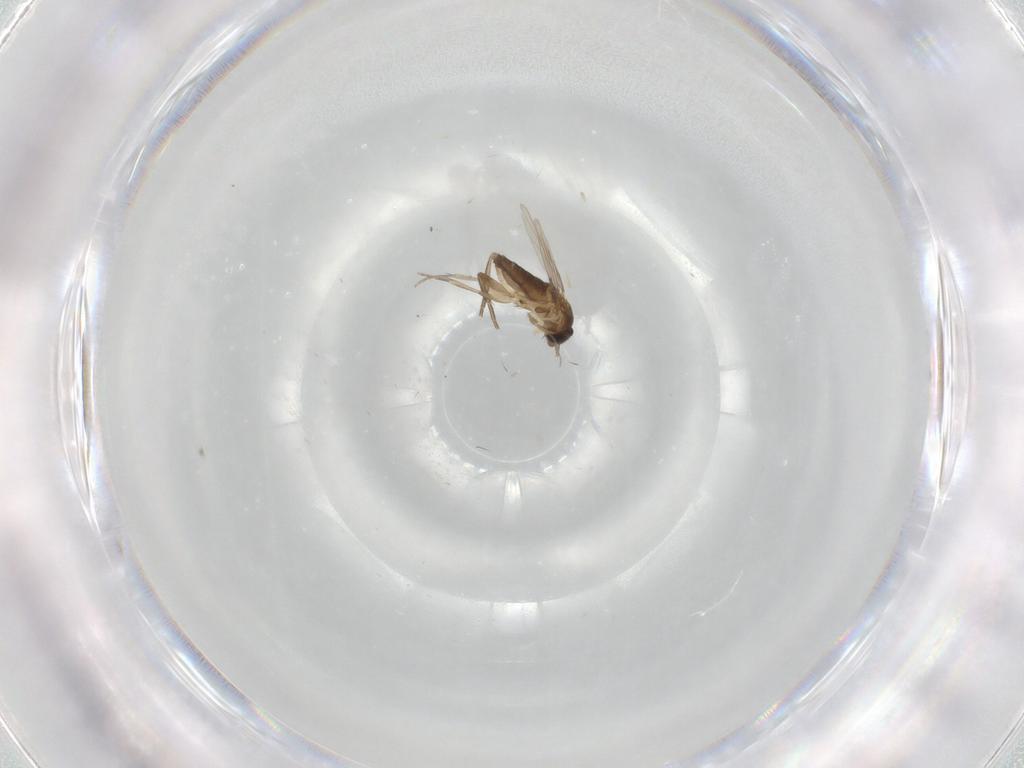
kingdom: Animalia
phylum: Arthropoda
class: Insecta
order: Diptera
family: Phoridae
